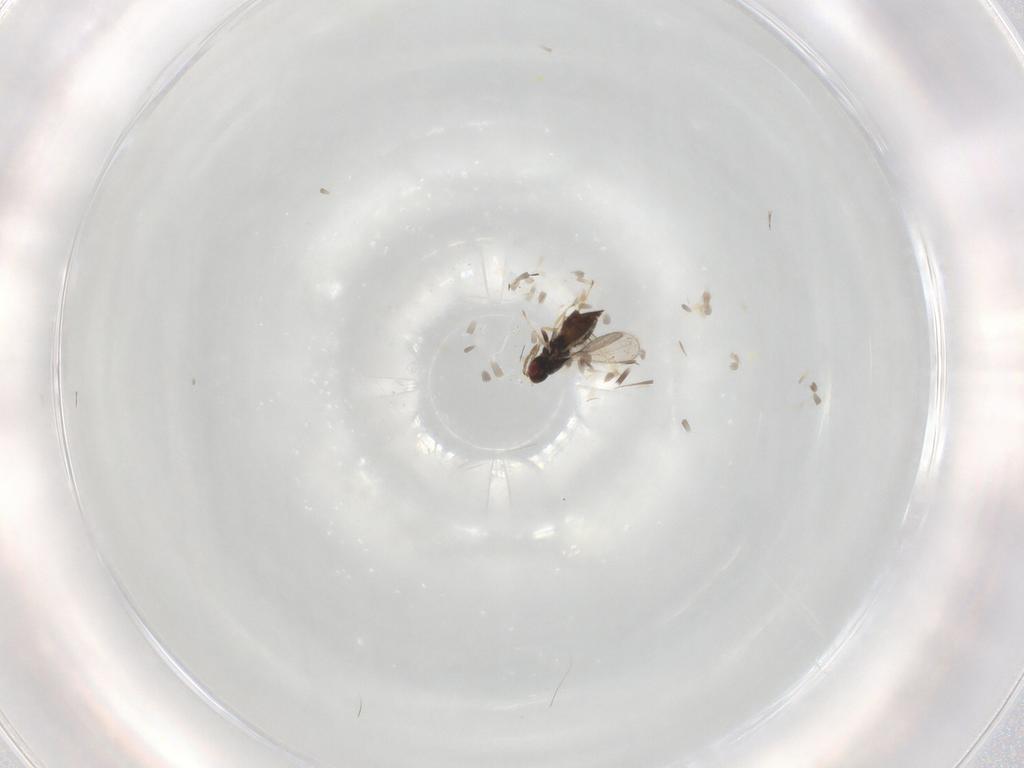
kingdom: Animalia
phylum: Arthropoda
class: Insecta
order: Hymenoptera
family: Eulophidae
